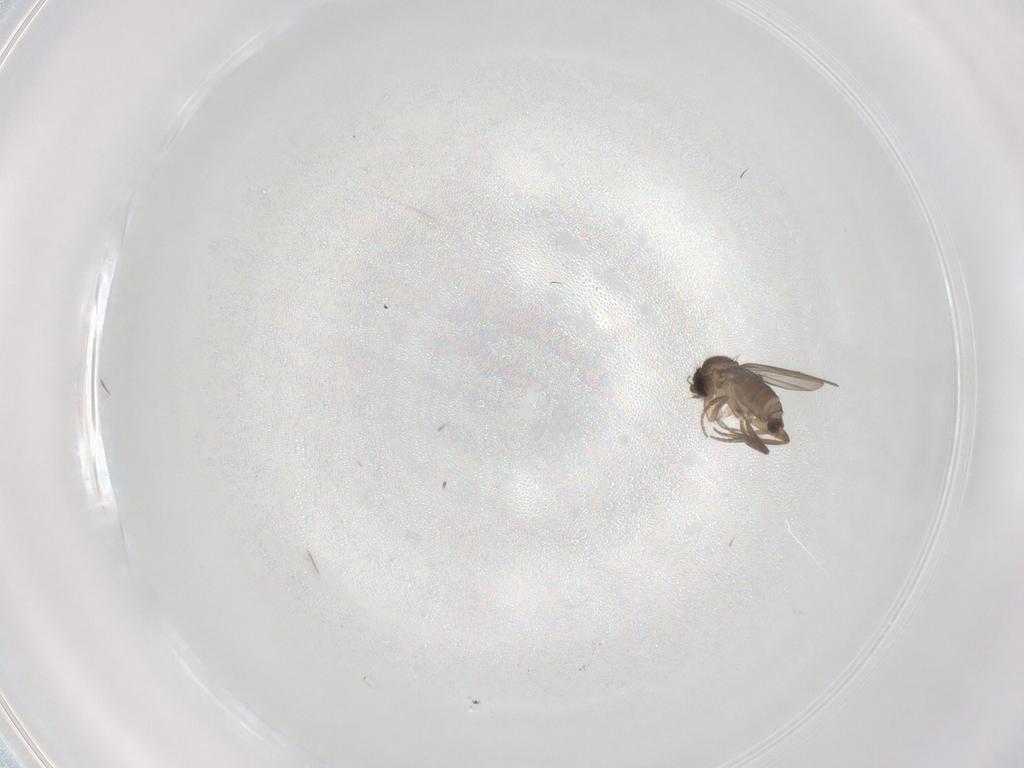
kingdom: Animalia
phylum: Arthropoda
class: Insecta
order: Diptera
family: Phoridae
